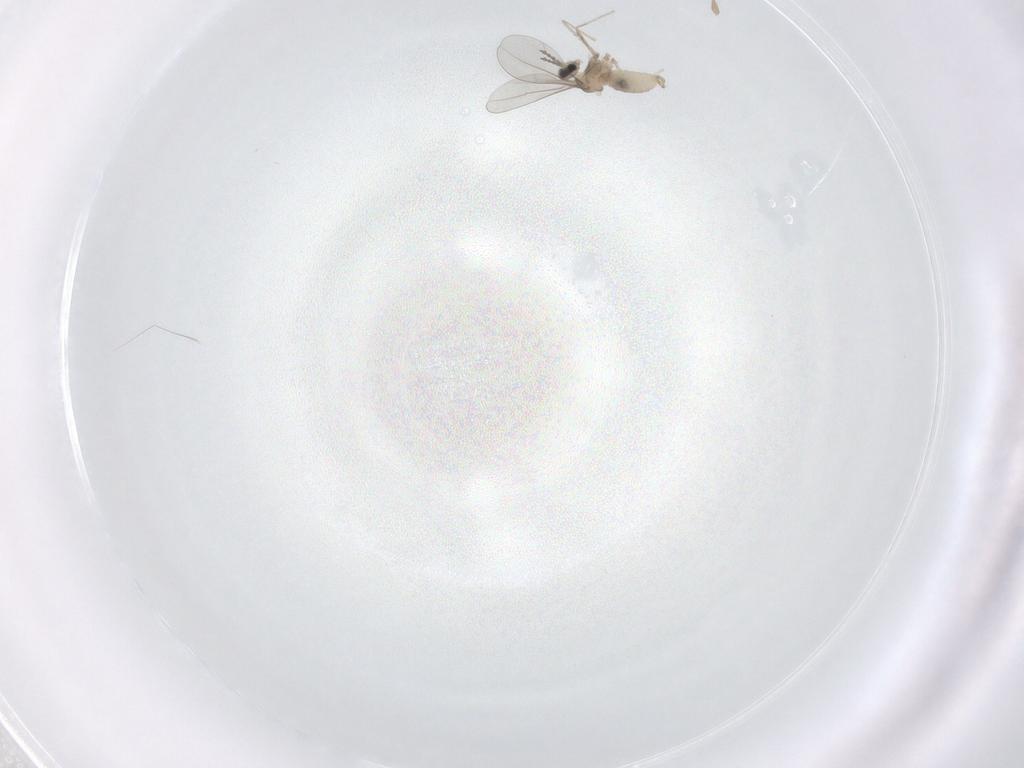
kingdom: Animalia
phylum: Arthropoda
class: Insecta
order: Diptera
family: Cecidomyiidae
